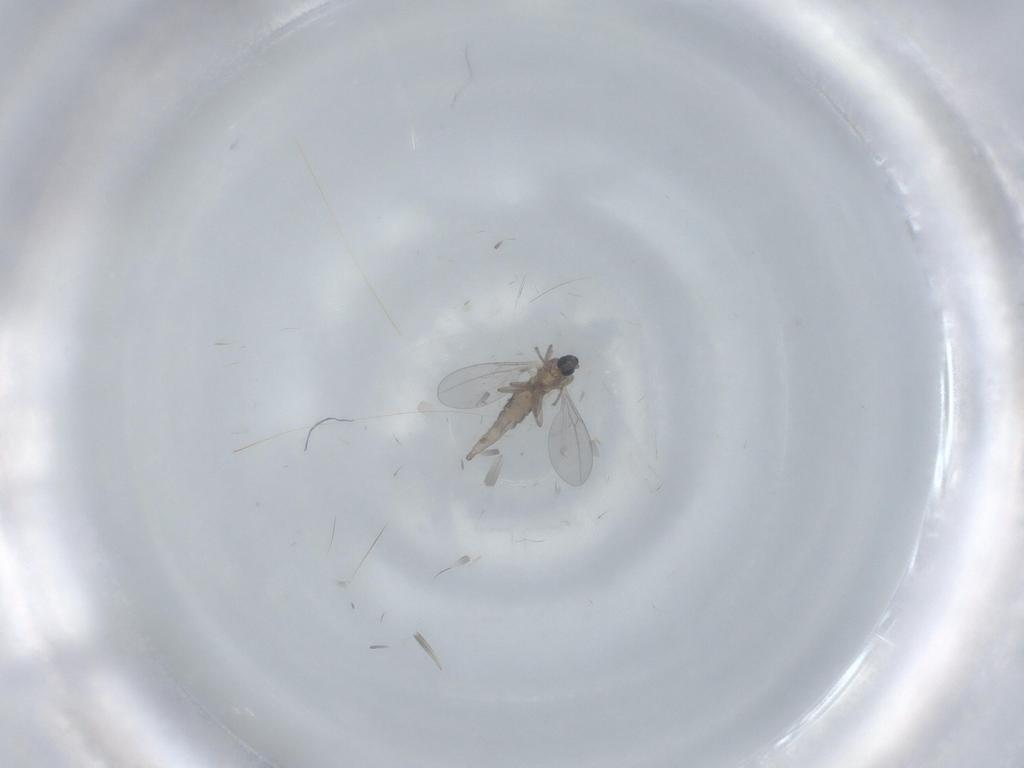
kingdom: Animalia
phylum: Arthropoda
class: Insecta
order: Diptera
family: Cecidomyiidae
